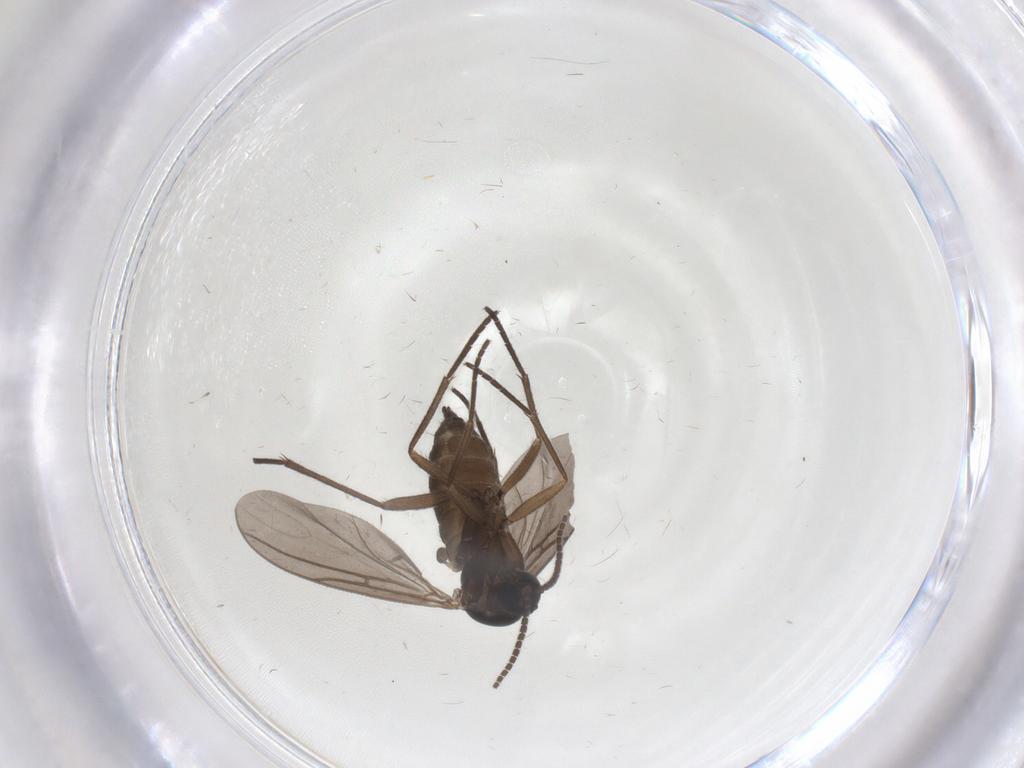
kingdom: Animalia
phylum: Arthropoda
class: Insecta
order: Diptera
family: Sciaridae
